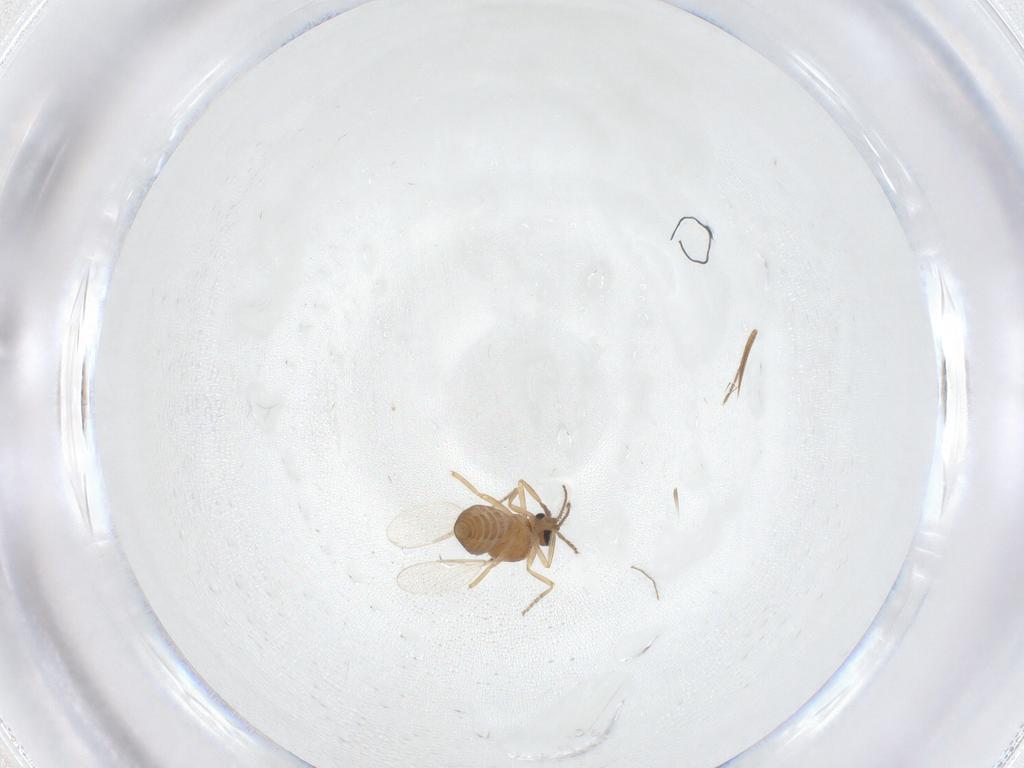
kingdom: Animalia
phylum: Arthropoda
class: Insecta
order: Diptera
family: Ceratopogonidae
